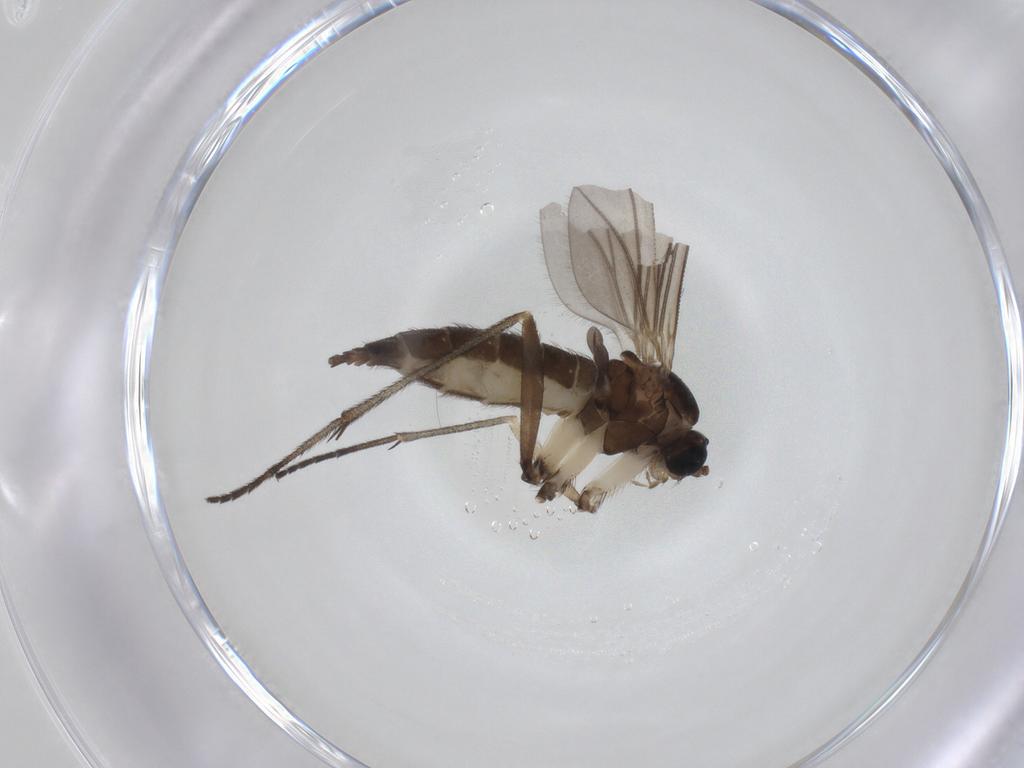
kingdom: Animalia
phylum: Arthropoda
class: Insecta
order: Diptera
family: Sciaridae
